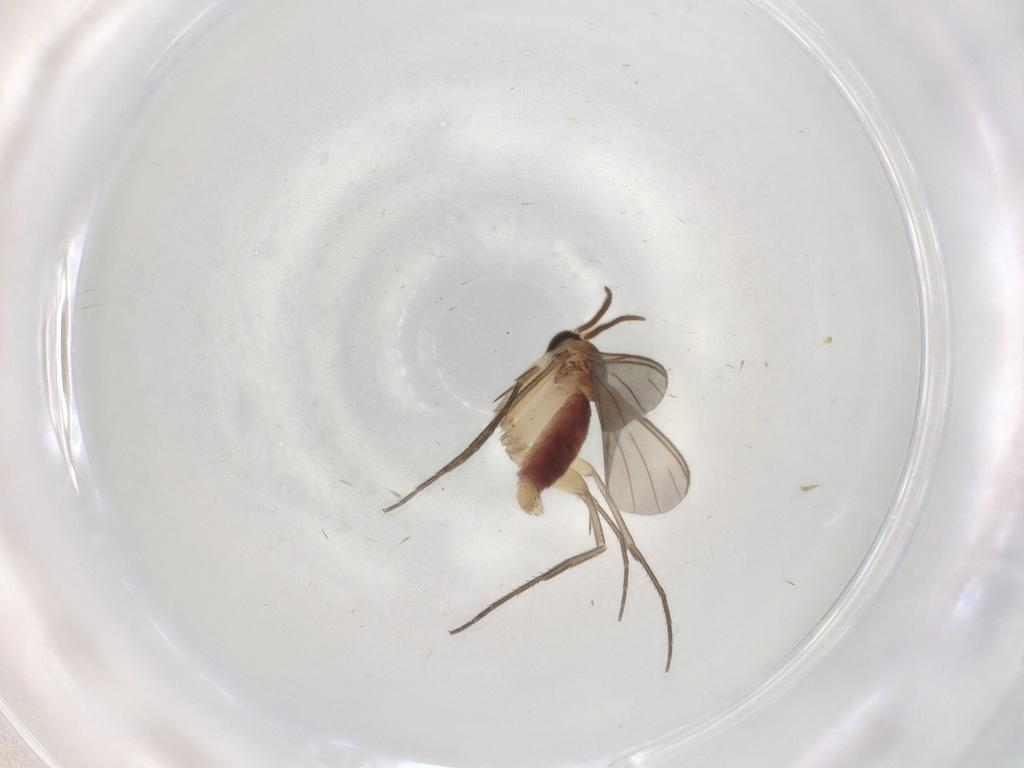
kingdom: Animalia
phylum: Arthropoda
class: Insecta
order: Diptera
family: Mycetophilidae
